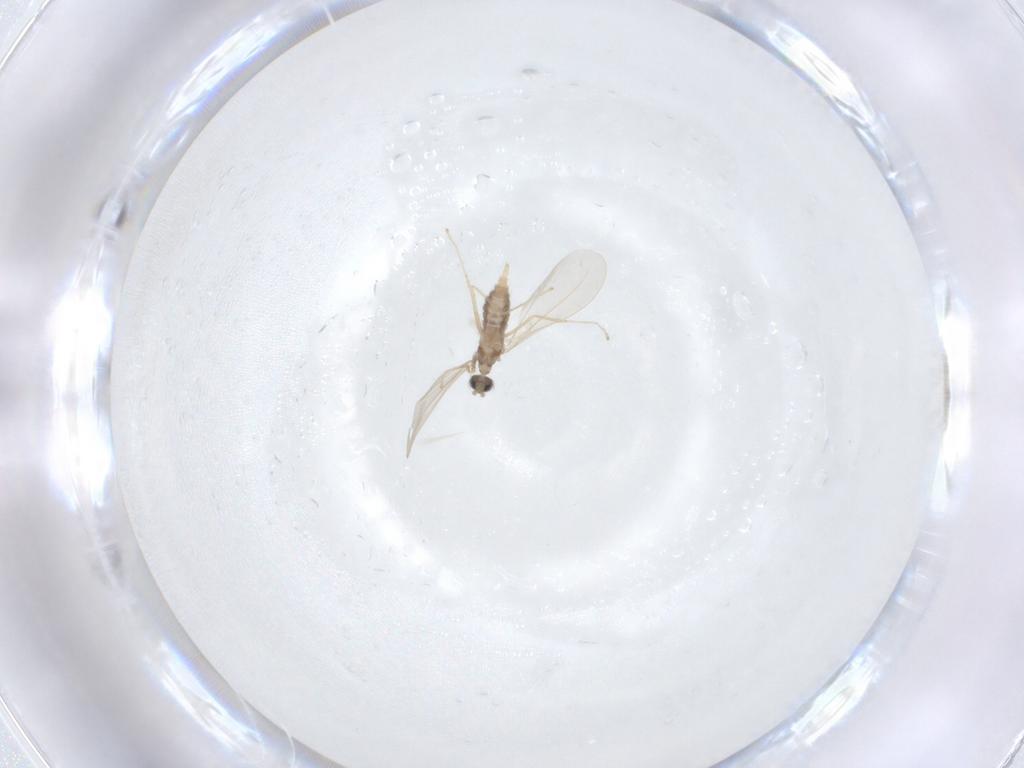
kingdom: Animalia
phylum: Arthropoda
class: Insecta
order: Diptera
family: Cecidomyiidae
